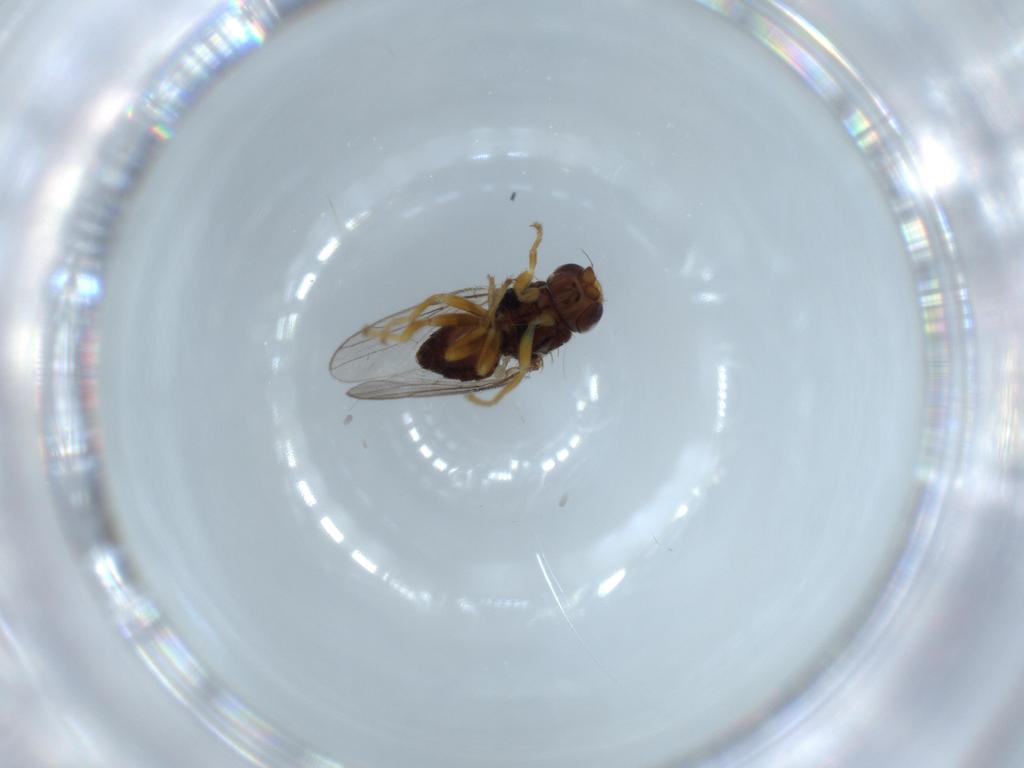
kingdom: Animalia
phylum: Arthropoda
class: Insecta
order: Diptera
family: Chloropidae
